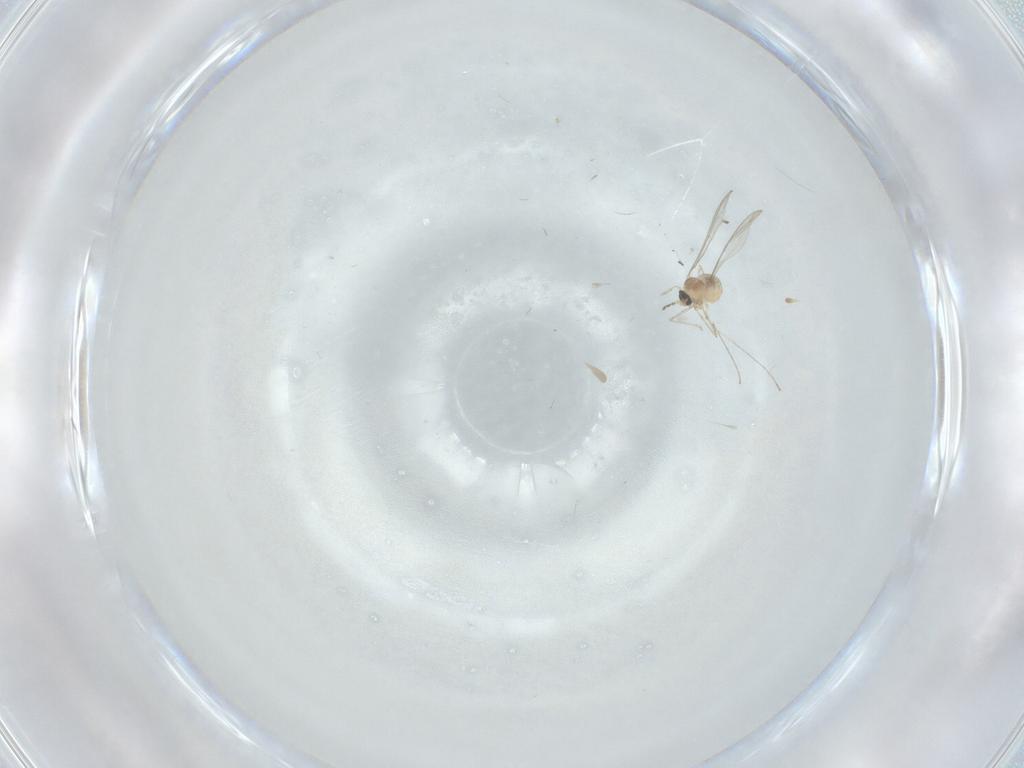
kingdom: Animalia
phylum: Arthropoda
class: Insecta
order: Diptera
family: Cecidomyiidae
